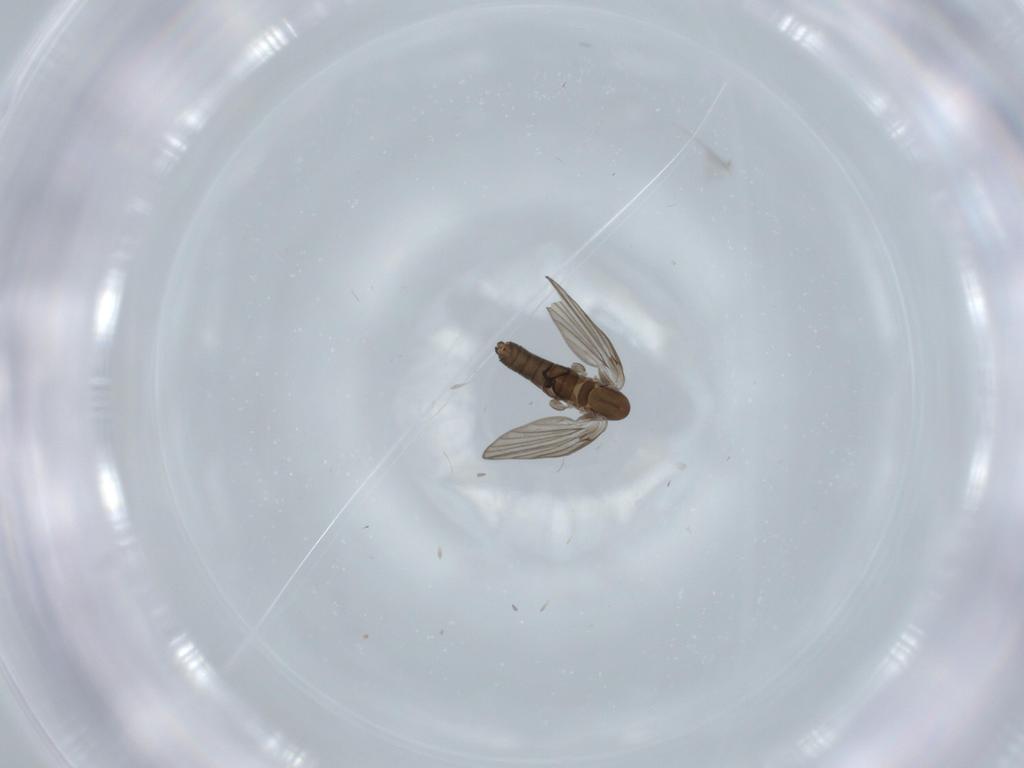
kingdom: Animalia
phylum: Arthropoda
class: Insecta
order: Diptera
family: Psychodidae
